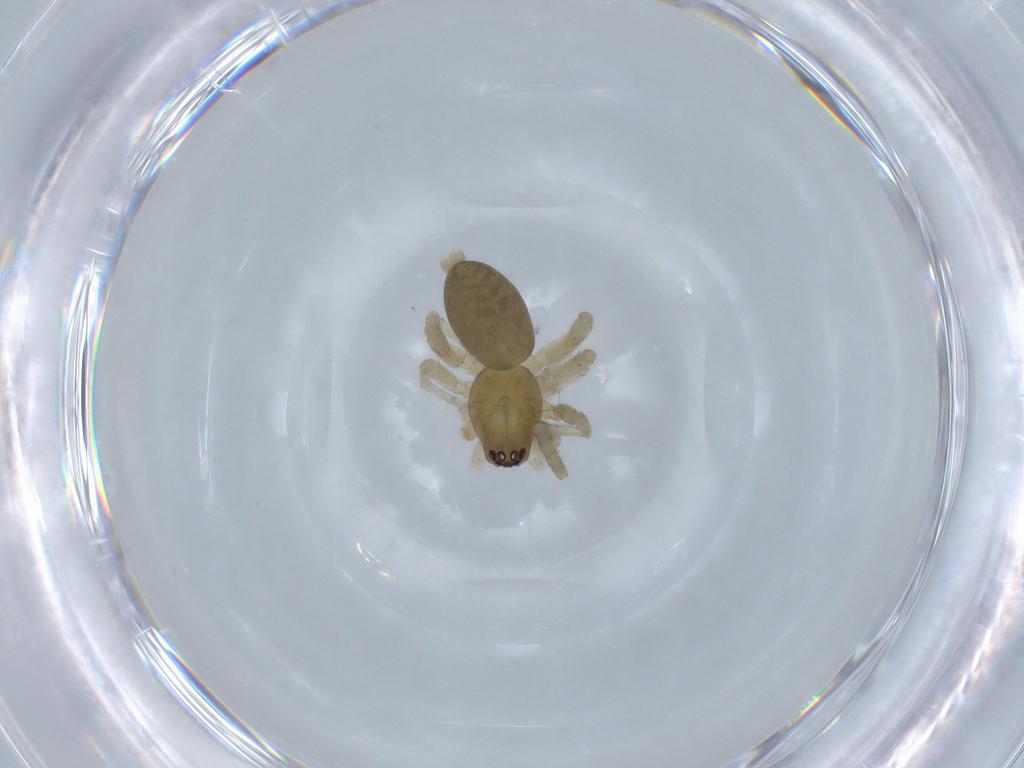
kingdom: Animalia
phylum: Arthropoda
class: Arachnida
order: Araneae
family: Anyphaenidae
